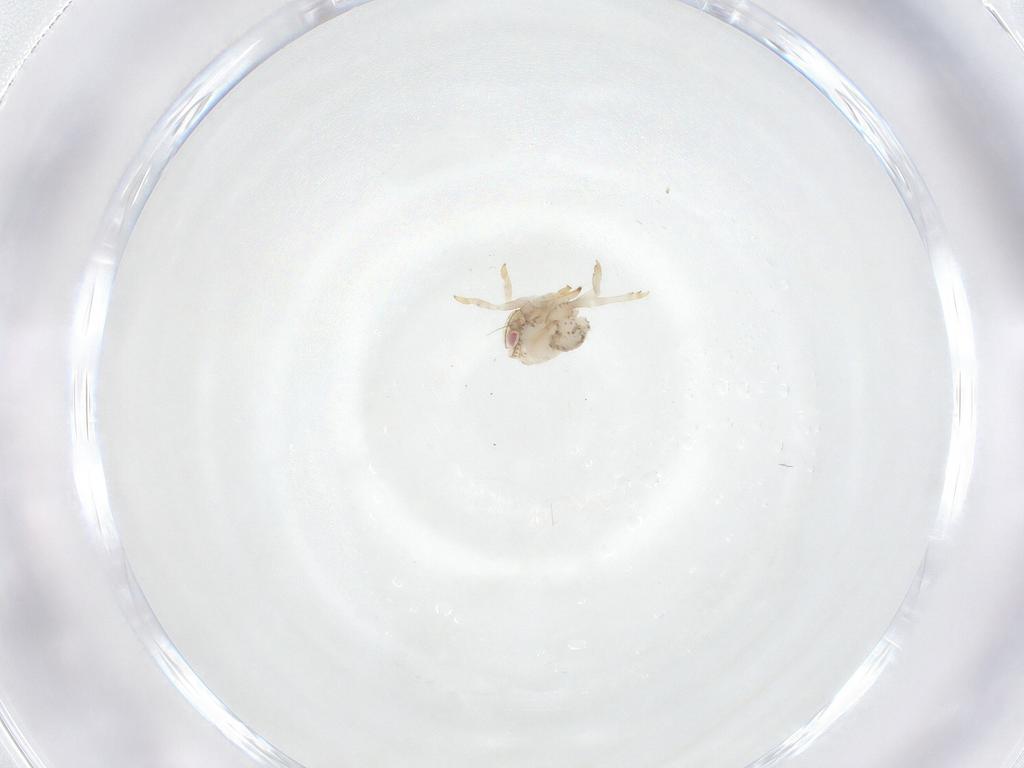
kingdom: Animalia
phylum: Arthropoda
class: Insecta
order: Hemiptera
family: Acanaloniidae
